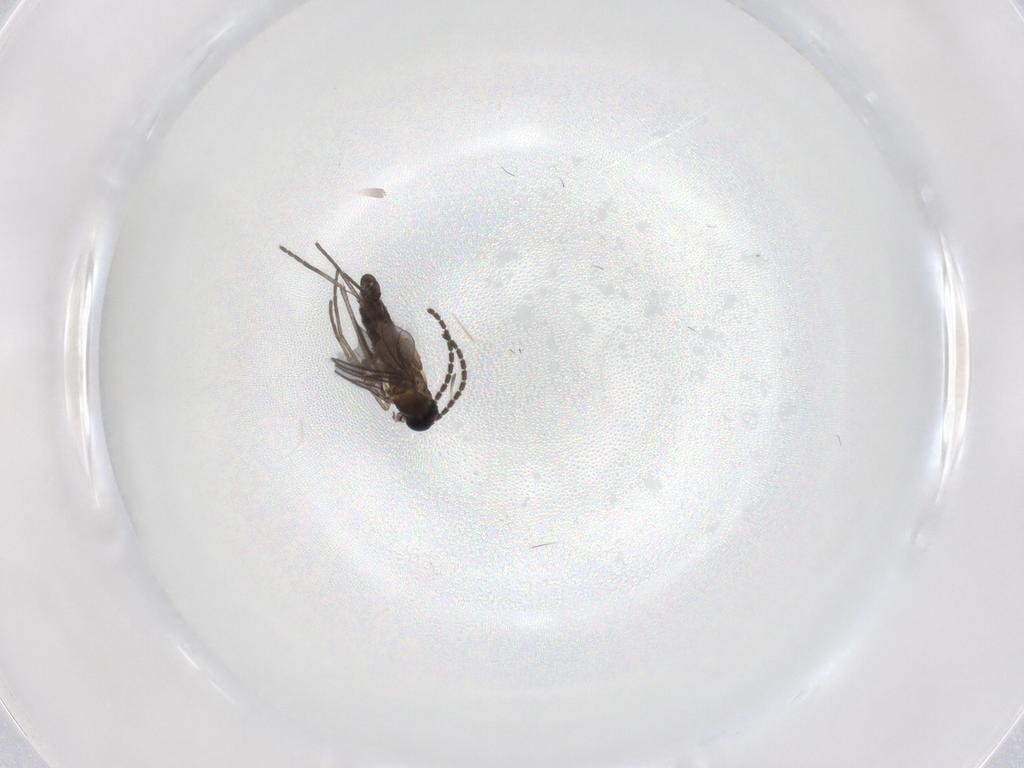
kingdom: Animalia
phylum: Arthropoda
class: Insecta
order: Diptera
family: Sciaridae
